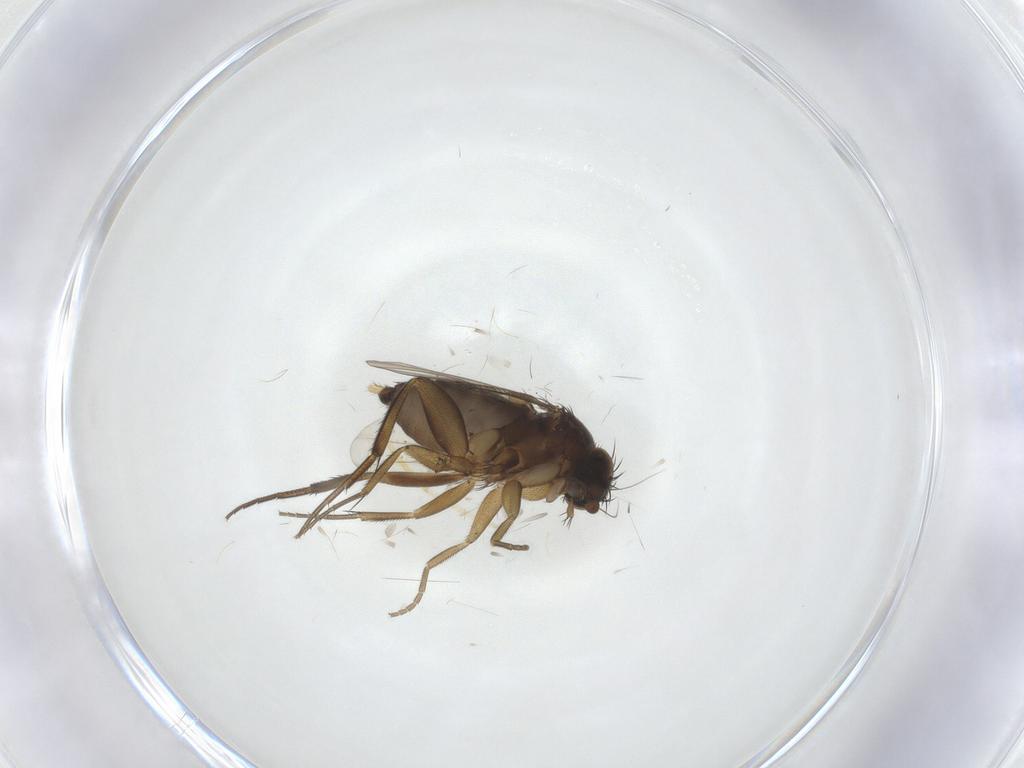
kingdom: Animalia
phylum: Arthropoda
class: Insecta
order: Diptera
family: Phoridae
